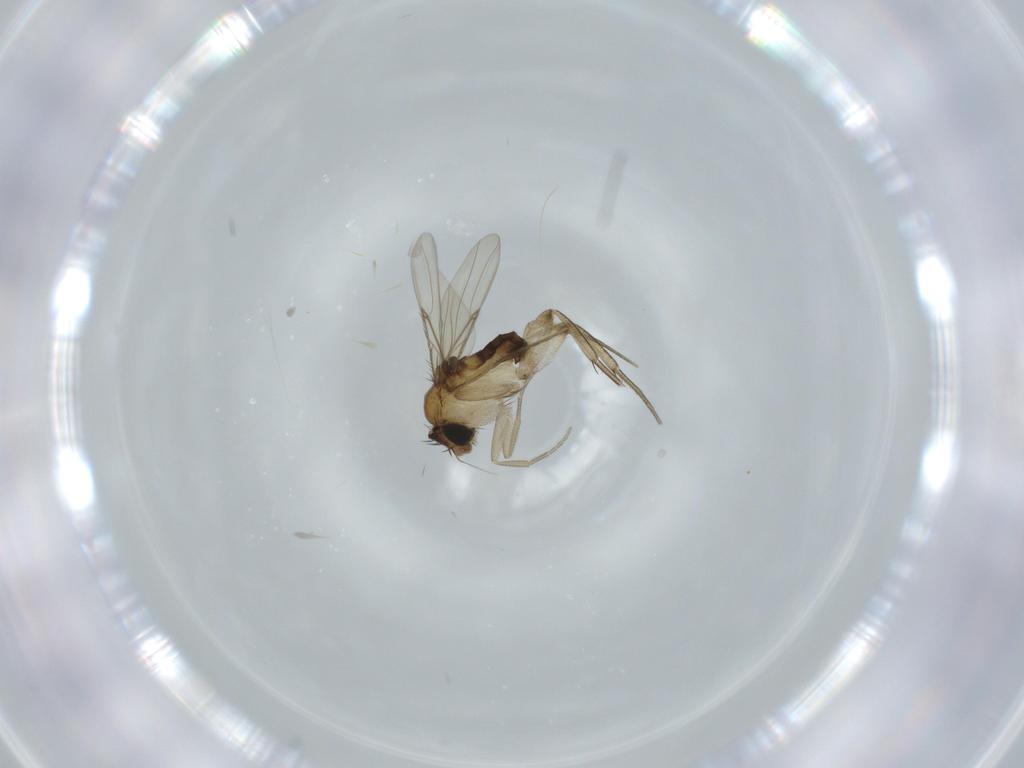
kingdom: Animalia
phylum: Arthropoda
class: Insecta
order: Diptera
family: Phoridae
